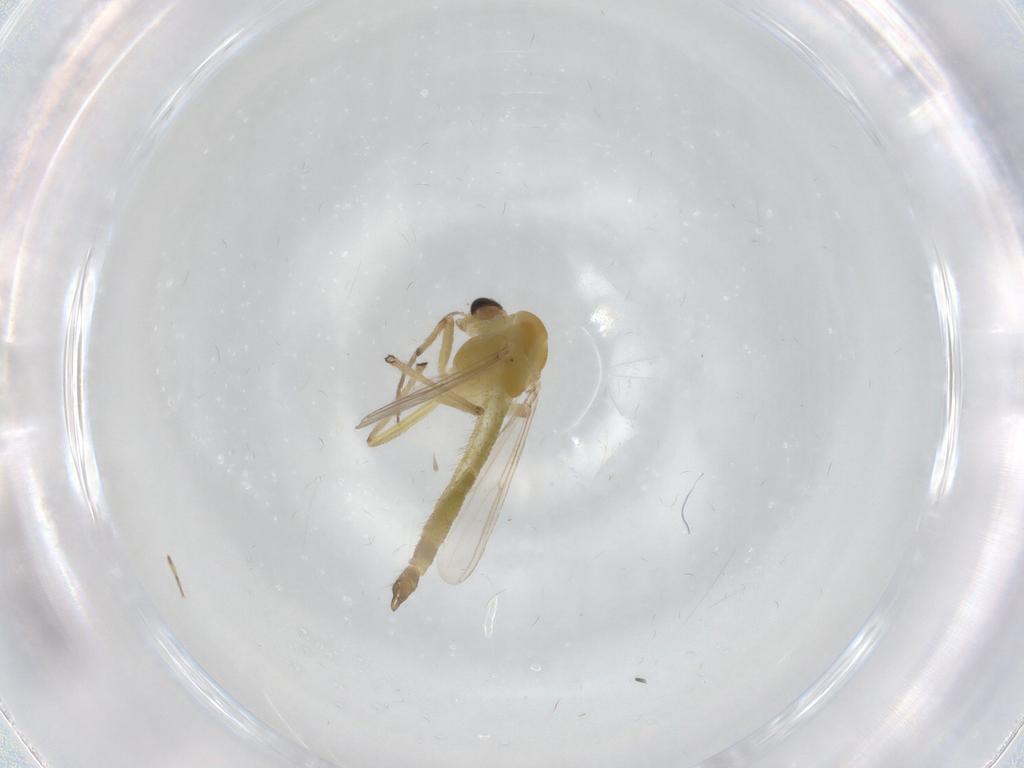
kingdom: Animalia
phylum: Arthropoda
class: Insecta
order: Diptera
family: Chironomidae
